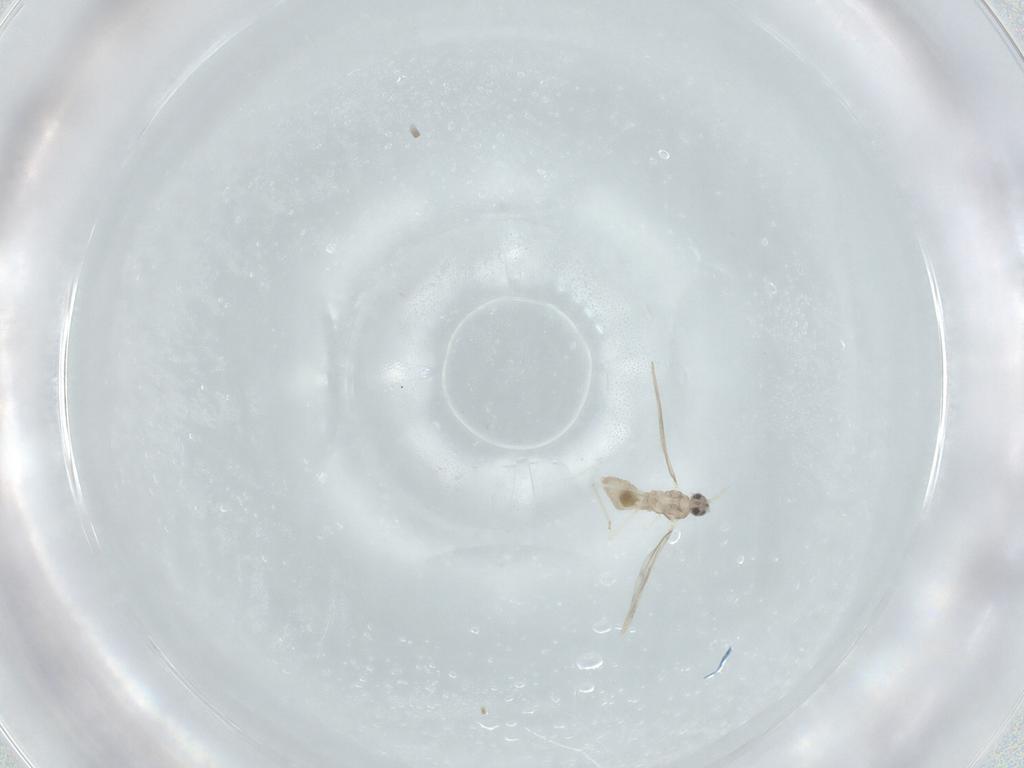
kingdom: Animalia
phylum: Arthropoda
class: Insecta
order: Diptera
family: Cecidomyiidae
